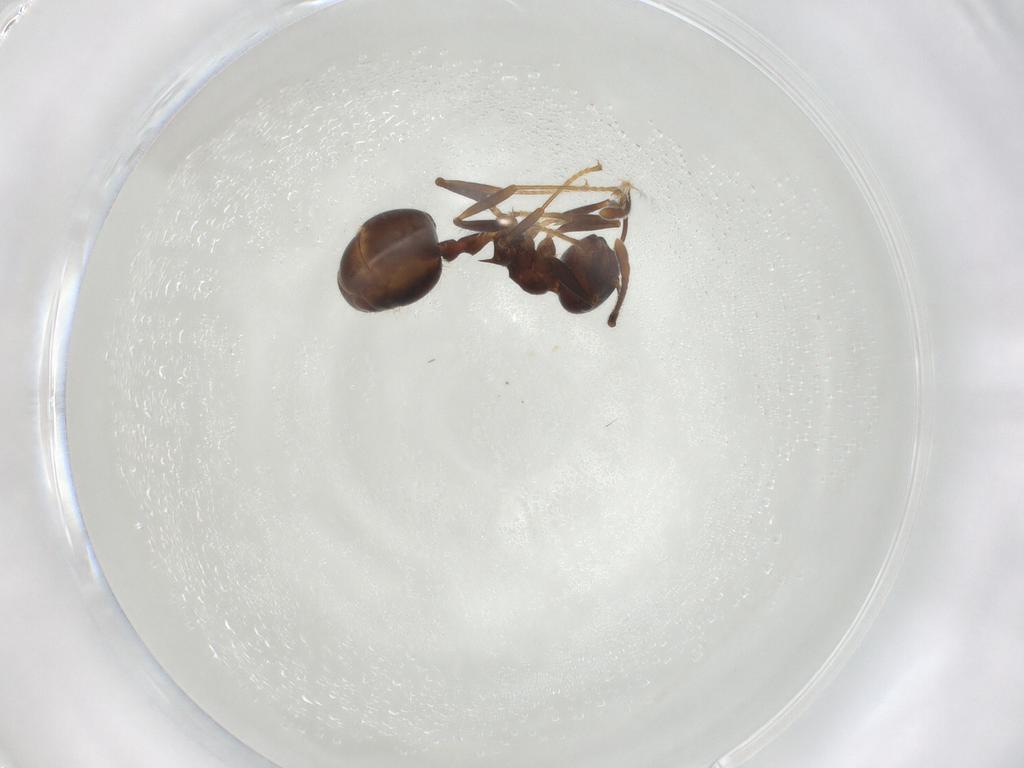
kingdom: Animalia
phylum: Arthropoda
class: Insecta
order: Hymenoptera
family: Formicidae
